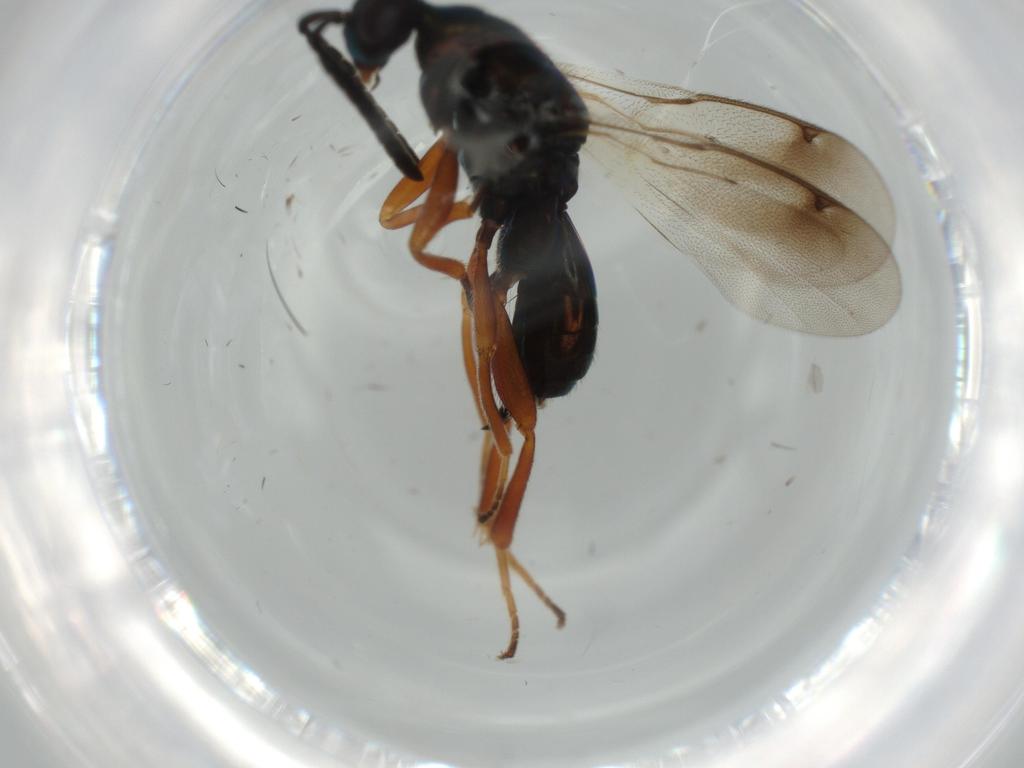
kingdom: Animalia
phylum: Arthropoda
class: Insecta
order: Hymenoptera
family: Torymidae
